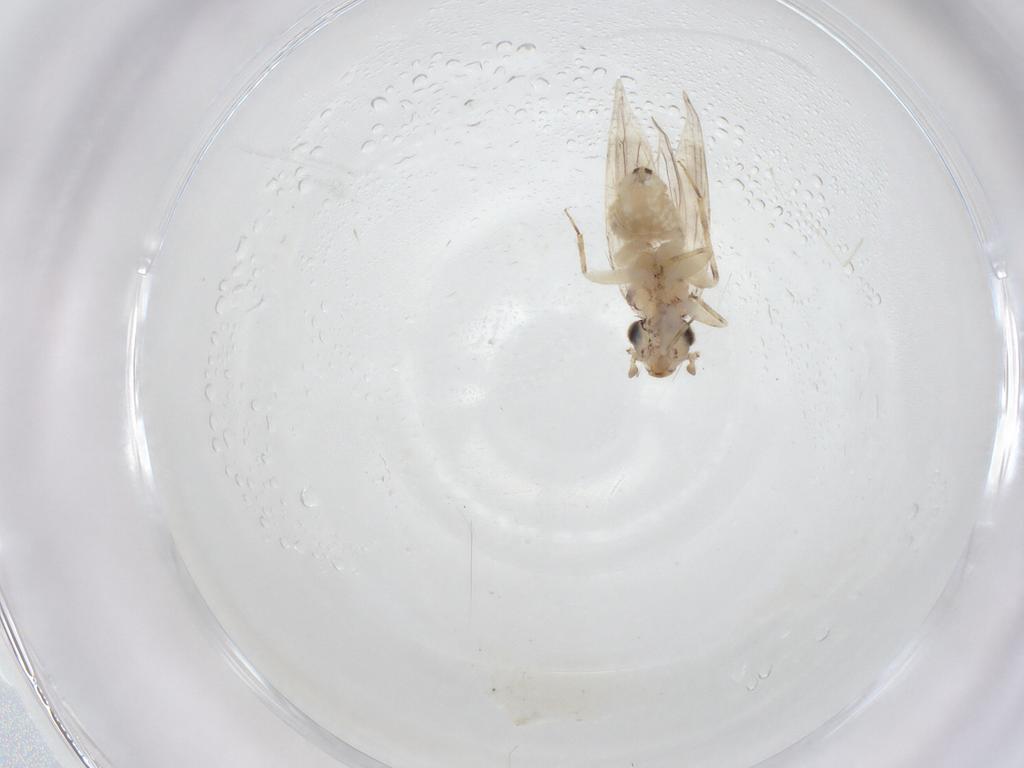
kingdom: Animalia
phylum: Arthropoda
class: Insecta
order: Psocodea
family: Lepidopsocidae
